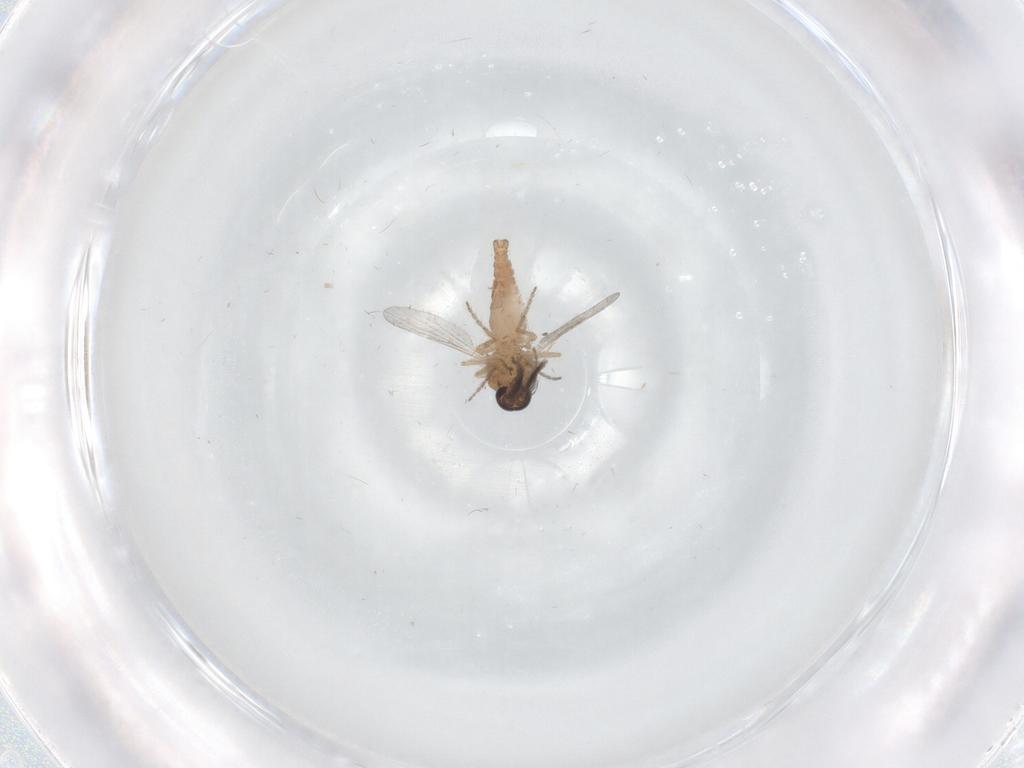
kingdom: Animalia
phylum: Arthropoda
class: Insecta
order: Diptera
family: Ceratopogonidae
